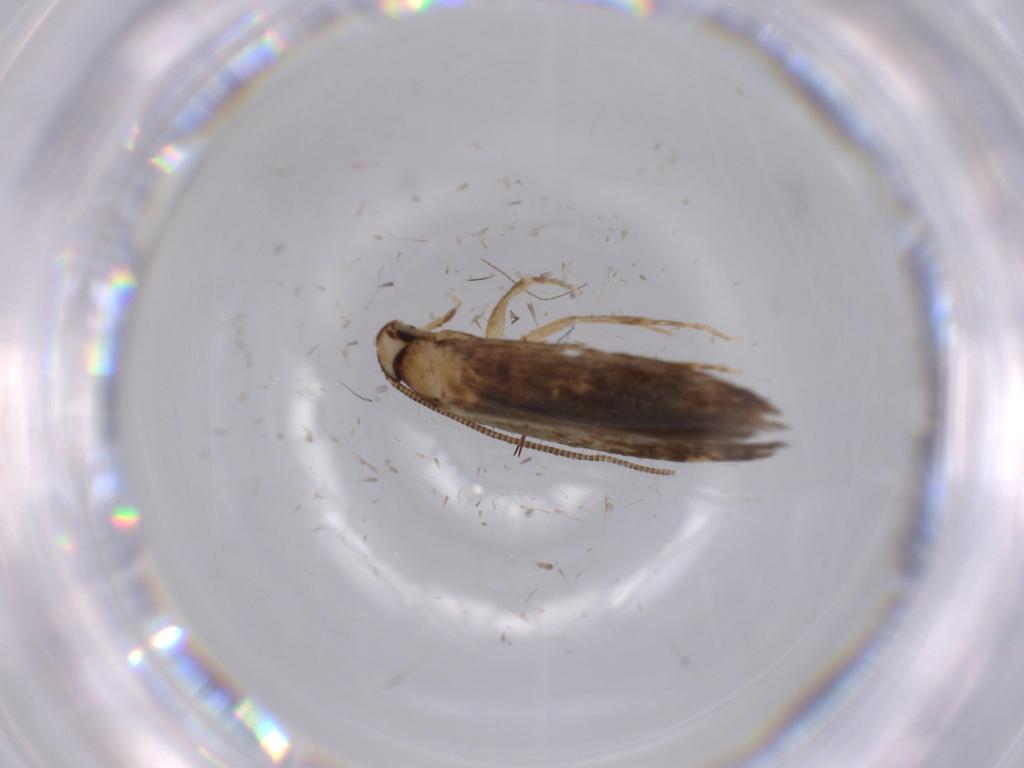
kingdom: Animalia
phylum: Arthropoda
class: Insecta
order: Lepidoptera
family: Tineidae
